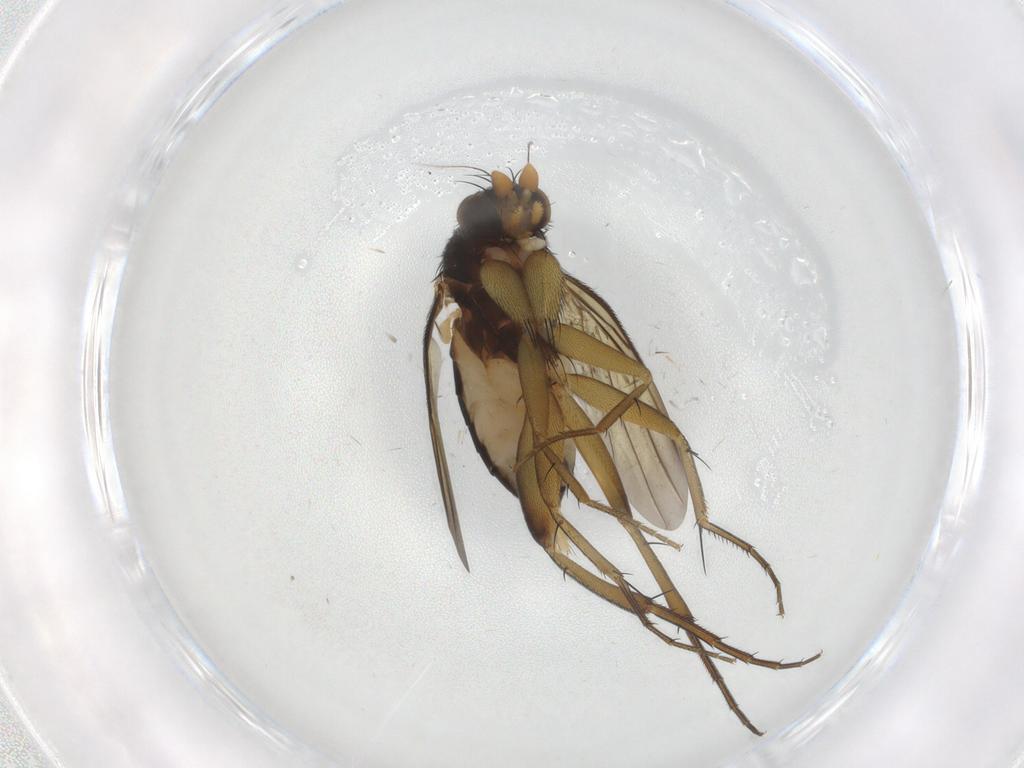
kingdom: Animalia
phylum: Arthropoda
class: Insecta
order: Diptera
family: Phoridae
